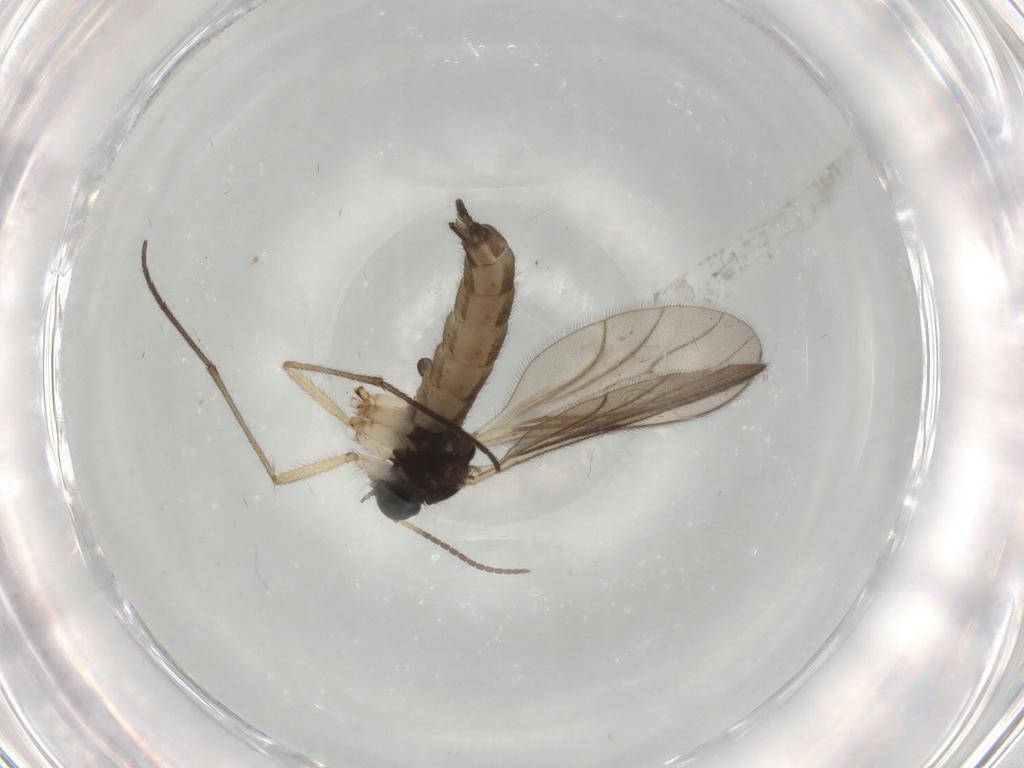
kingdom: Animalia
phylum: Arthropoda
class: Insecta
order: Diptera
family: Sciaridae
